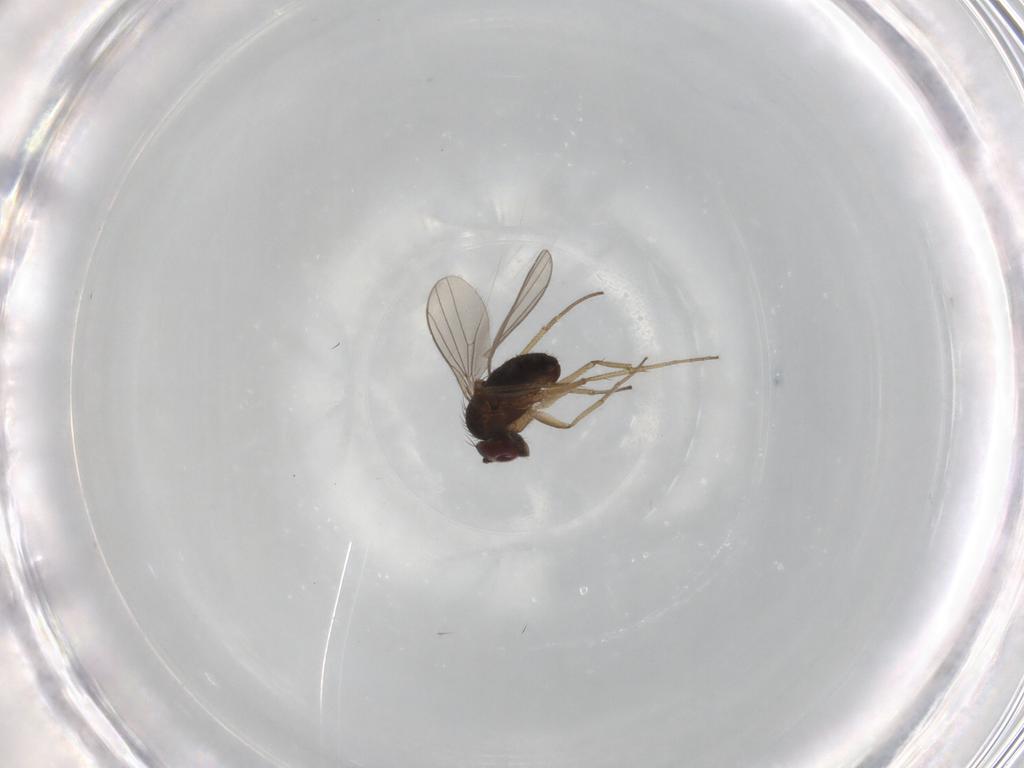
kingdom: Animalia
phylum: Arthropoda
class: Insecta
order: Diptera
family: Dolichopodidae
